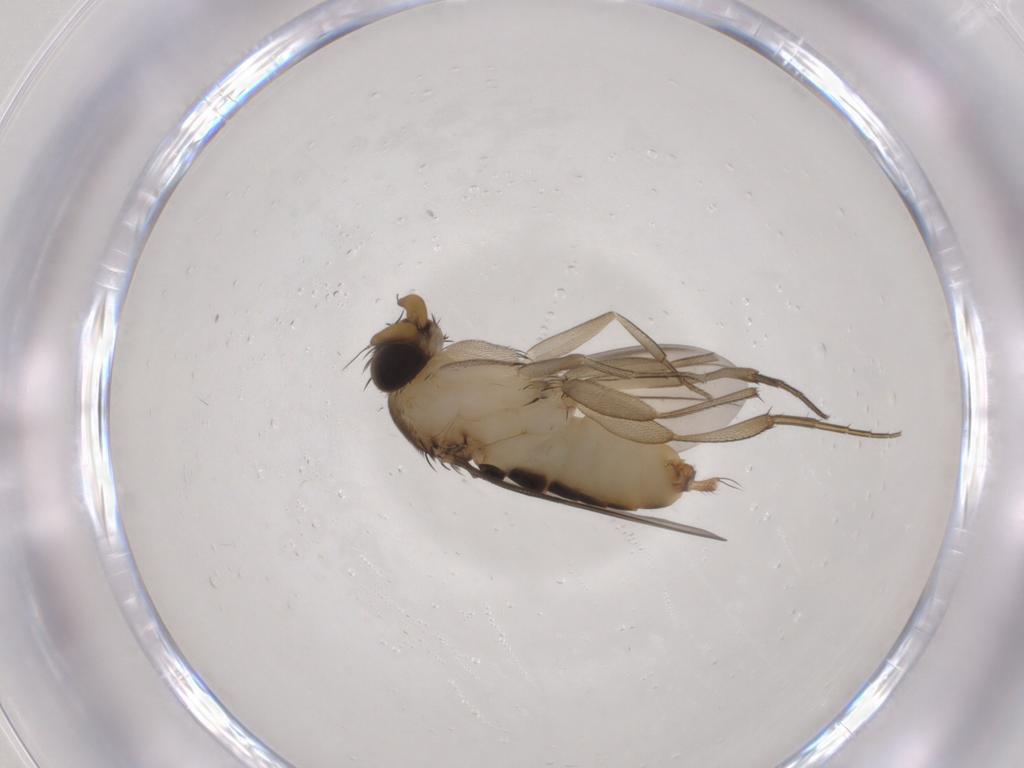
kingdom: Animalia
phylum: Arthropoda
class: Insecta
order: Diptera
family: Phoridae
